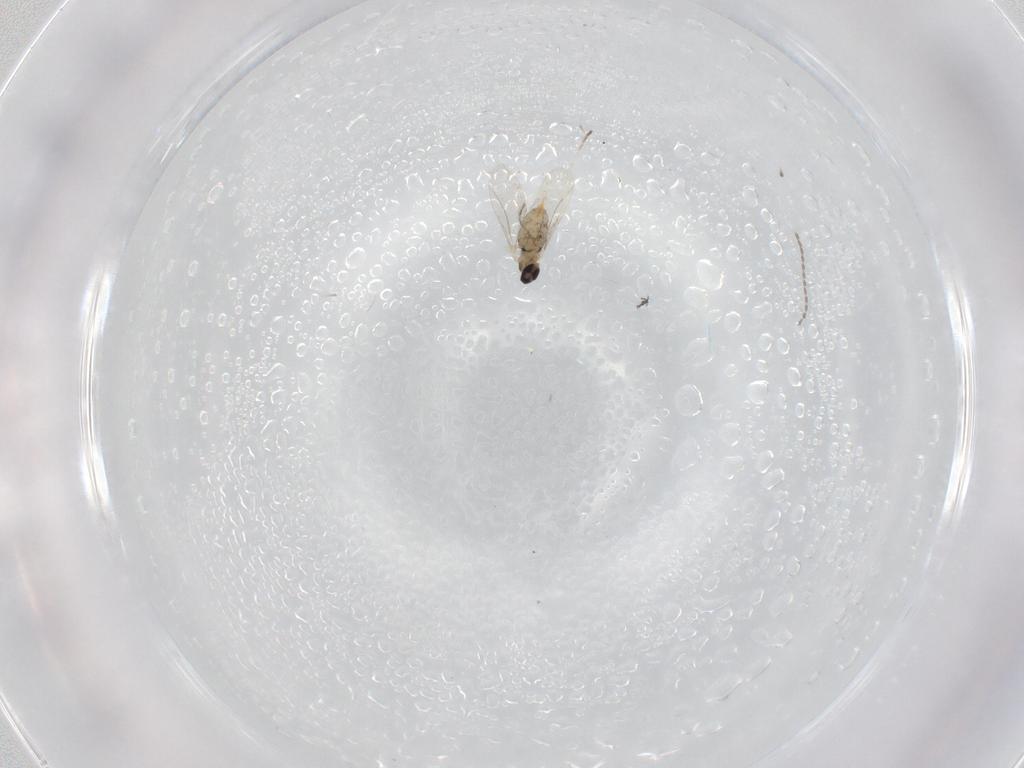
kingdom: Animalia
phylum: Arthropoda
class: Insecta
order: Diptera
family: Cecidomyiidae
